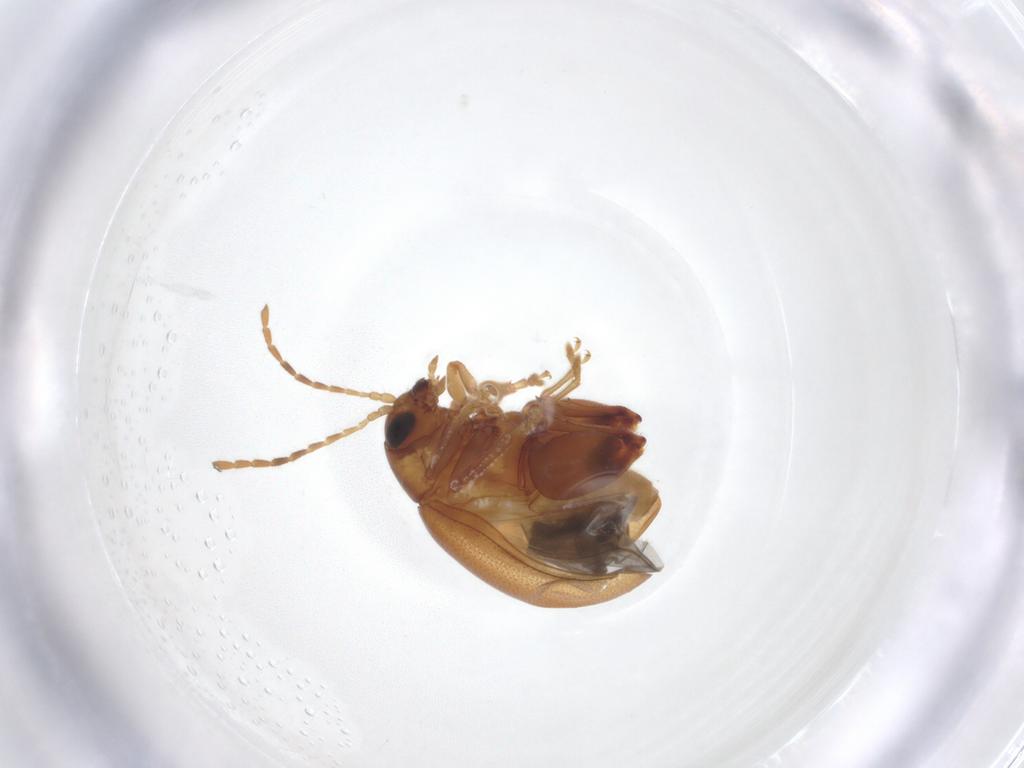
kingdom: Animalia
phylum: Arthropoda
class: Insecta
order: Coleoptera
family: Chrysomelidae
